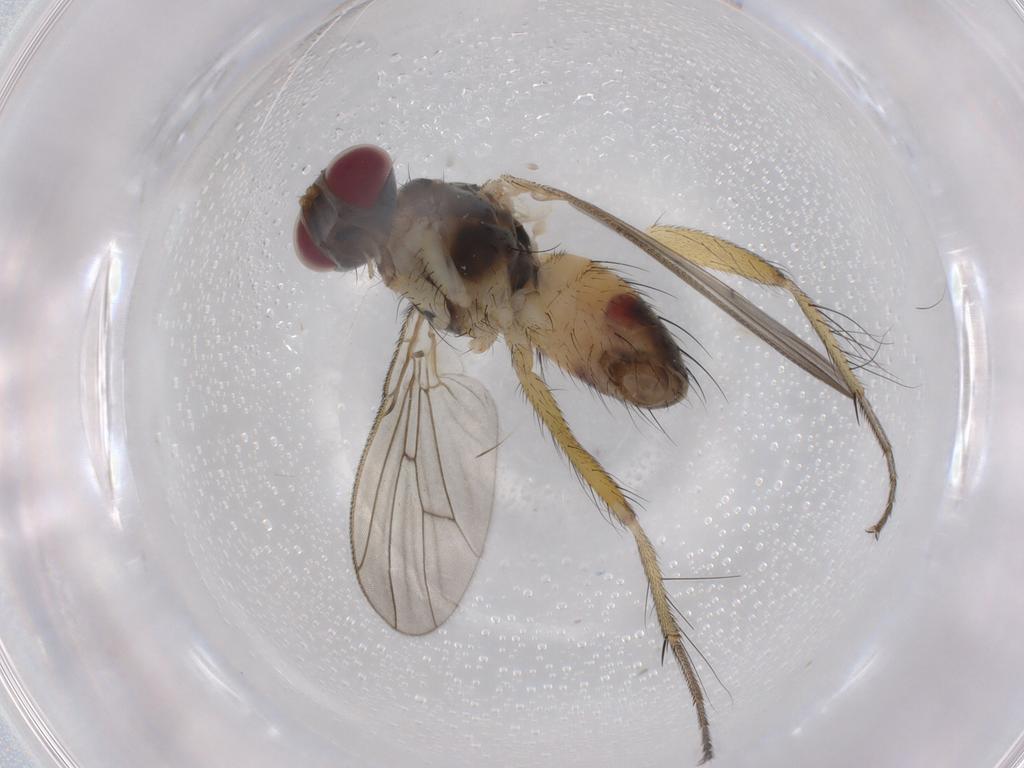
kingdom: Animalia
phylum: Arthropoda
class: Insecta
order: Diptera
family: Muscidae
